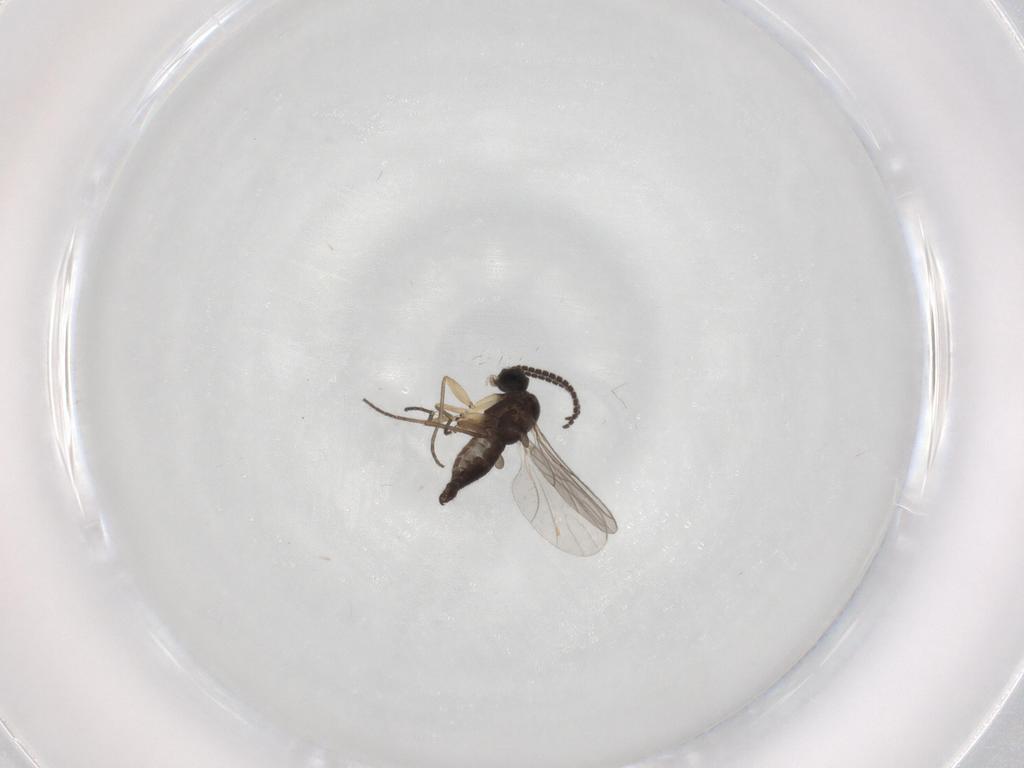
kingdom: Animalia
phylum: Arthropoda
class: Insecta
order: Diptera
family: Sciaridae
